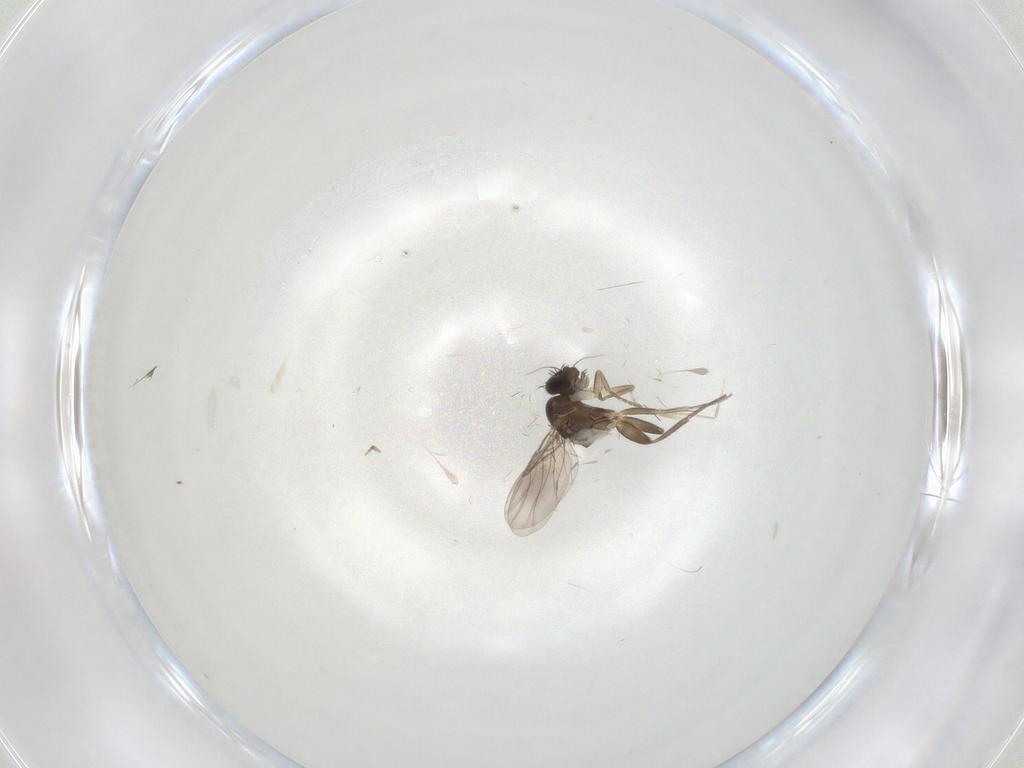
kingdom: Animalia
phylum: Arthropoda
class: Insecta
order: Diptera
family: Phoridae
